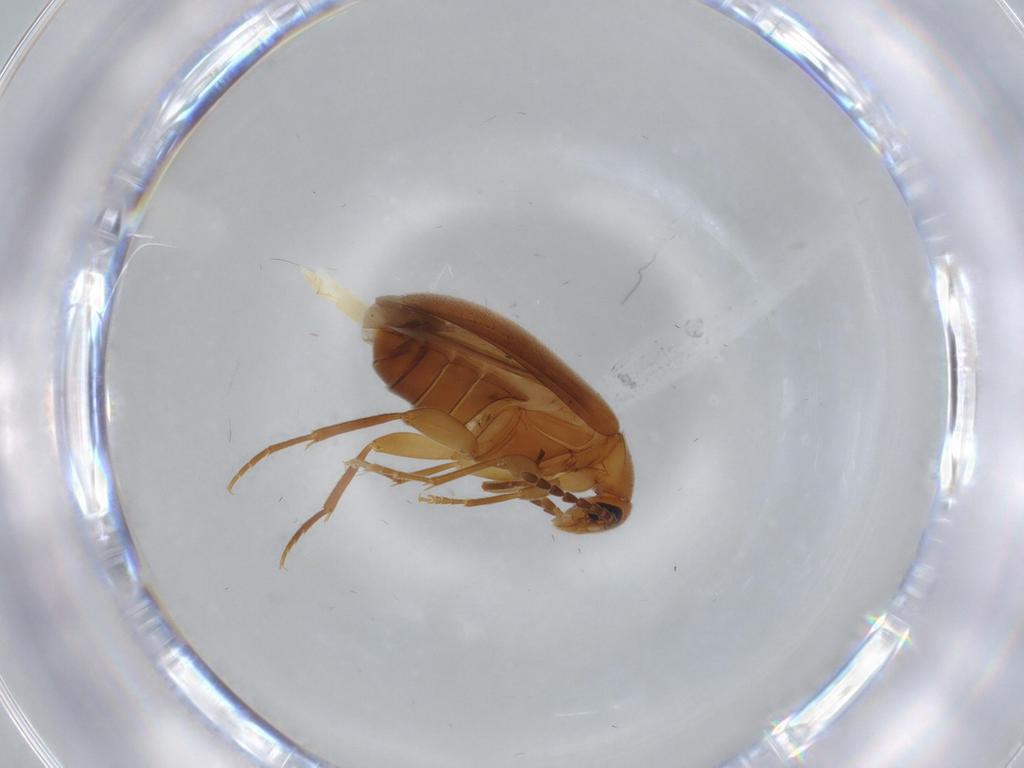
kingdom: Animalia
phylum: Arthropoda
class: Insecta
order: Coleoptera
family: Scraptiidae
